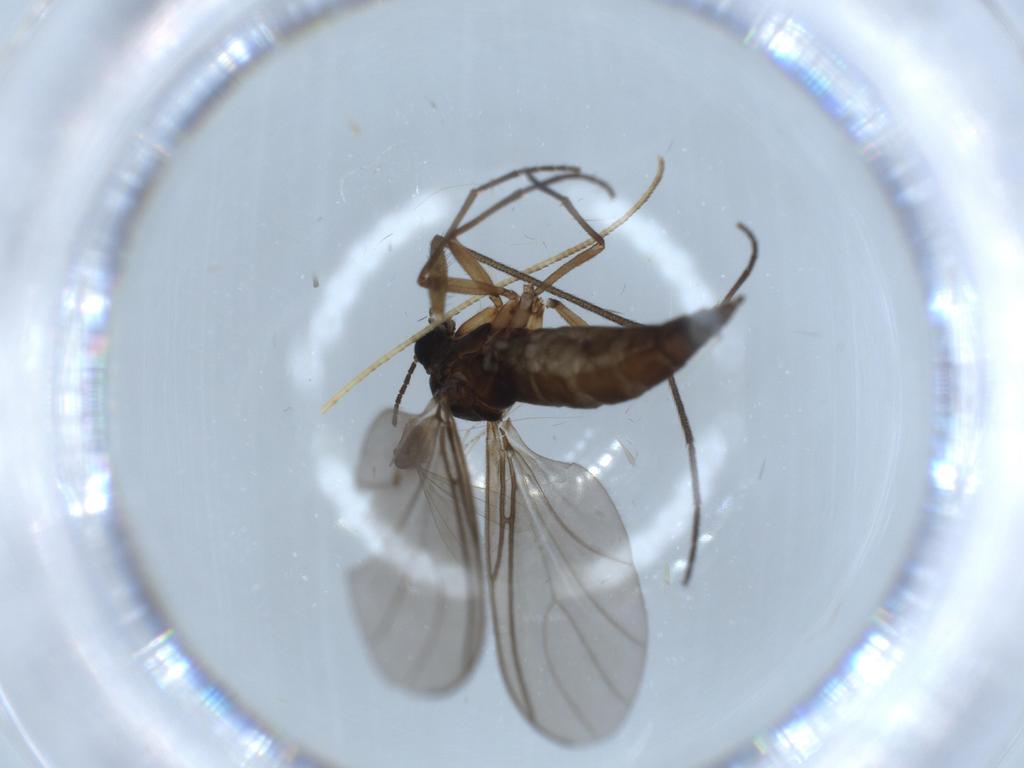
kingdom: Animalia
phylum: Arthropoda
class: Insecta
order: Diptera
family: Sciaridae
